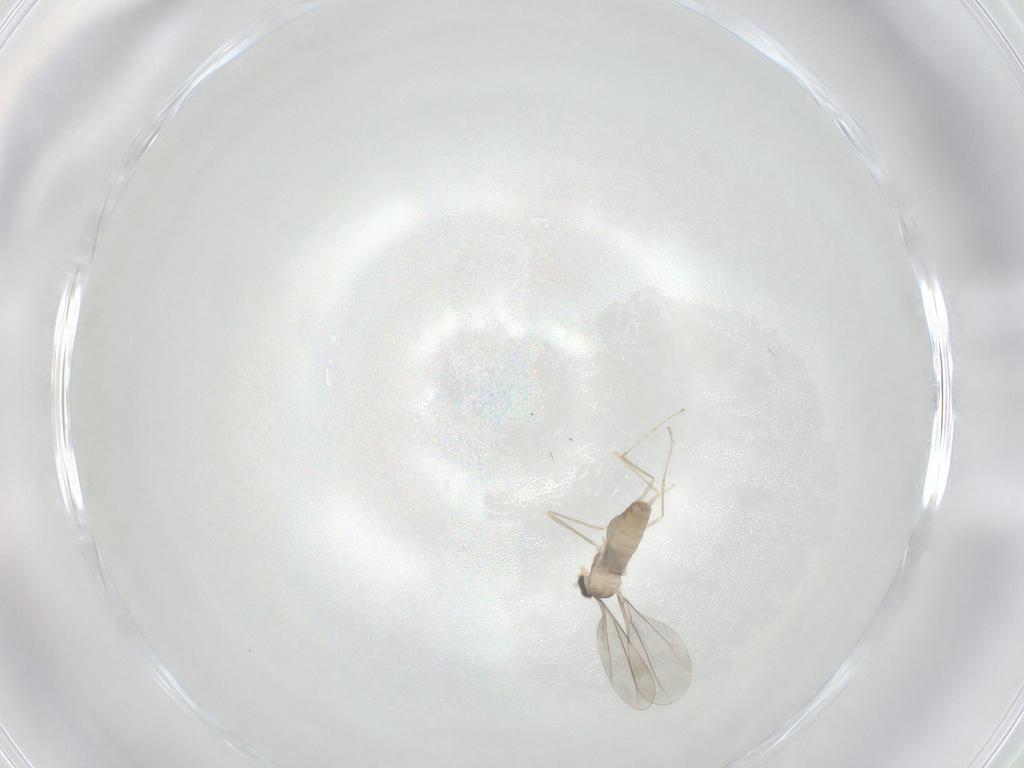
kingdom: Animalia
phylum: Arthropoda
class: Insecta
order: Diptera
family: Cecidomyiidae
